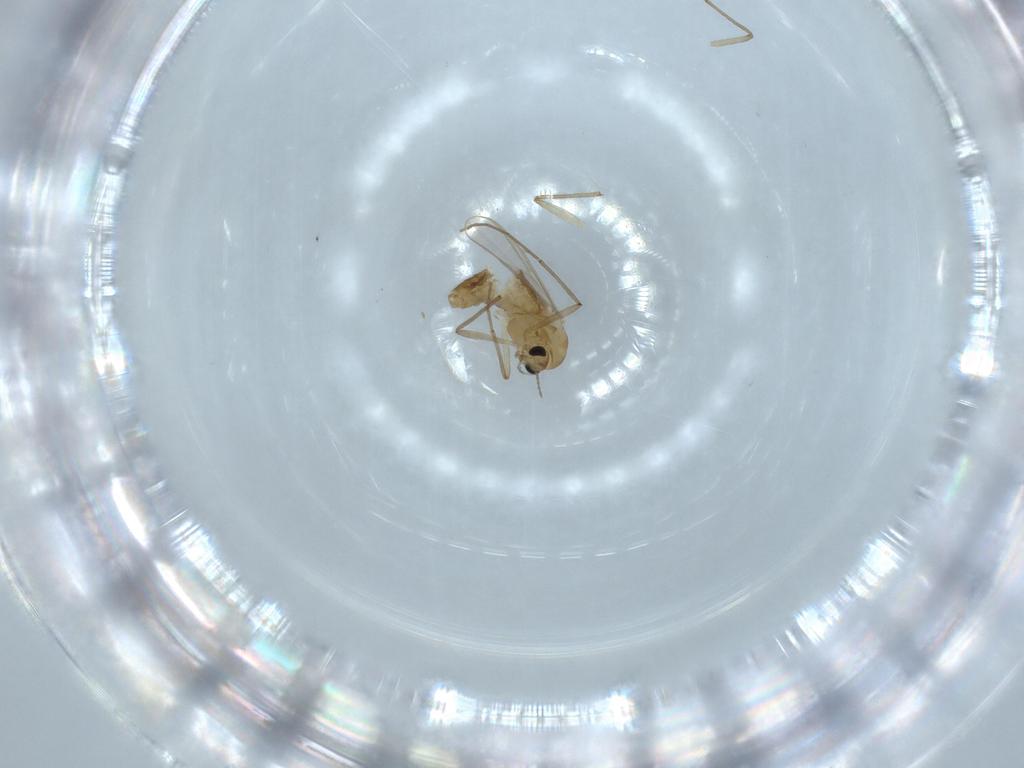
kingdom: Animalia
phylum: Arthropoda
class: Insecta
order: Diptera
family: Chironomidae
